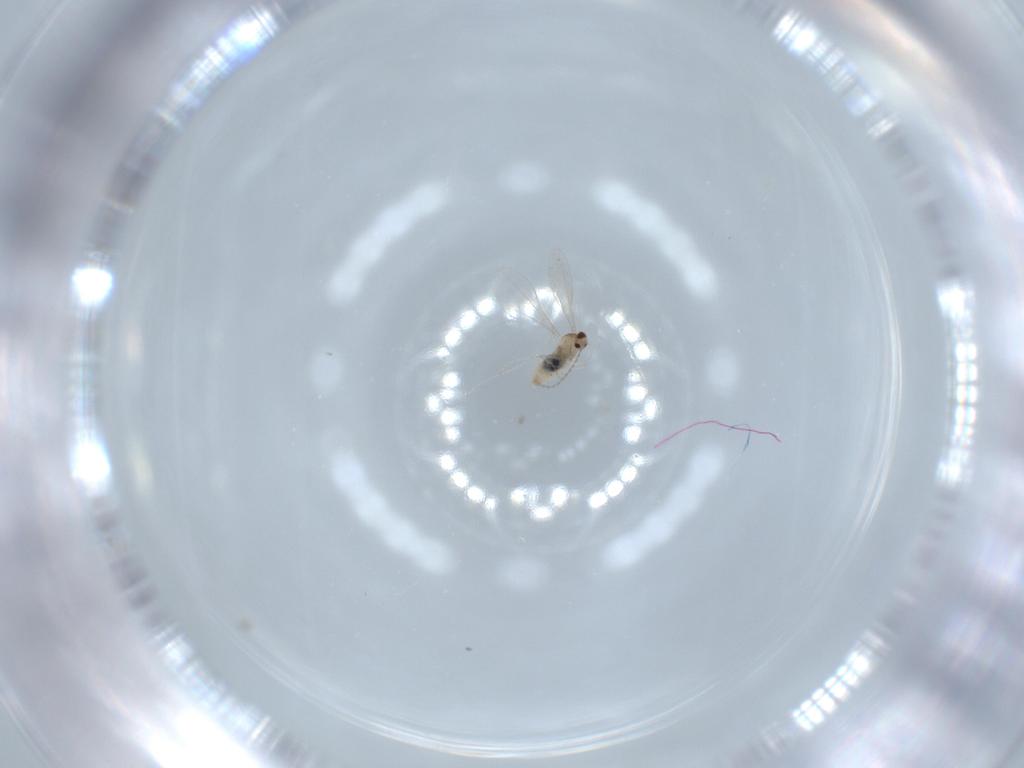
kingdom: Animalia
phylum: Arthropoda
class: Insecta
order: Diptera
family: Cecidomyiidae
